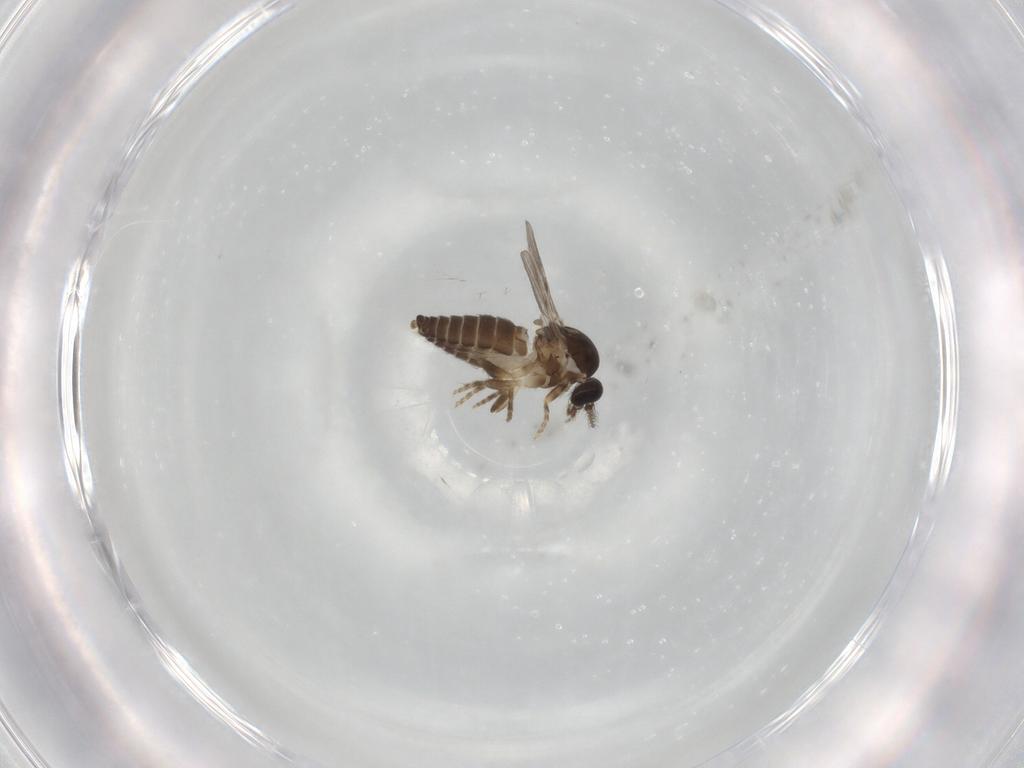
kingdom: Animalia
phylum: Arthropoda
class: Insecta
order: Diptera
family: Ceratopogonidae
